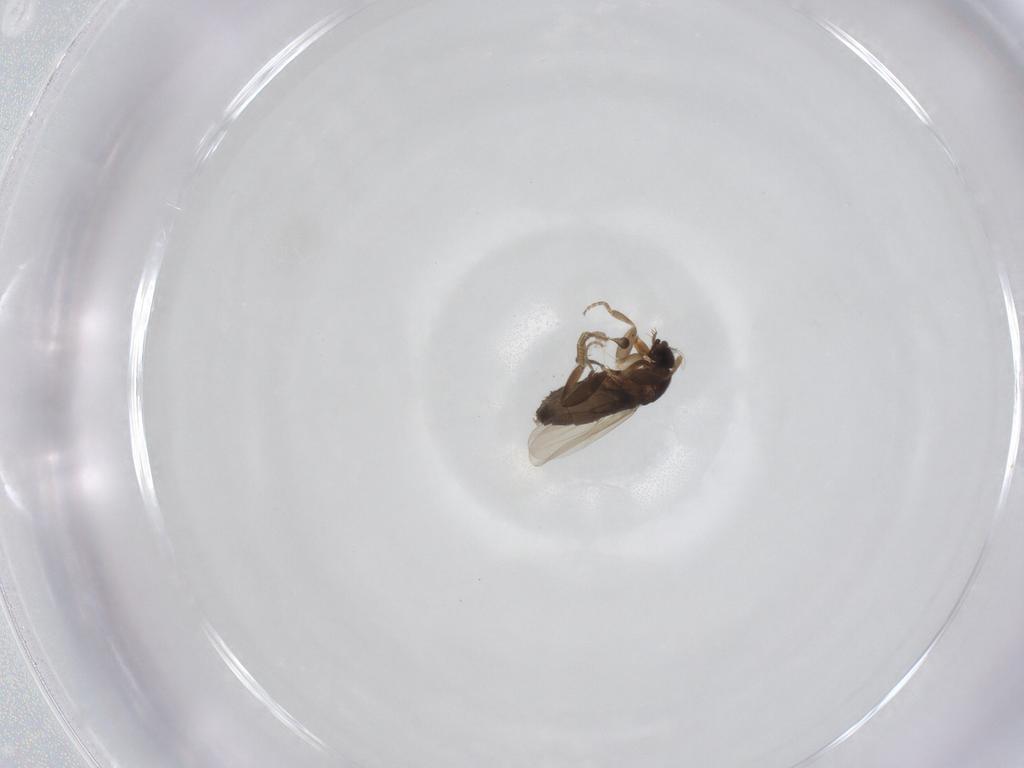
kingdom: Animalia
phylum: Arthropoda
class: Insecta
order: Diptera
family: Phoridae
